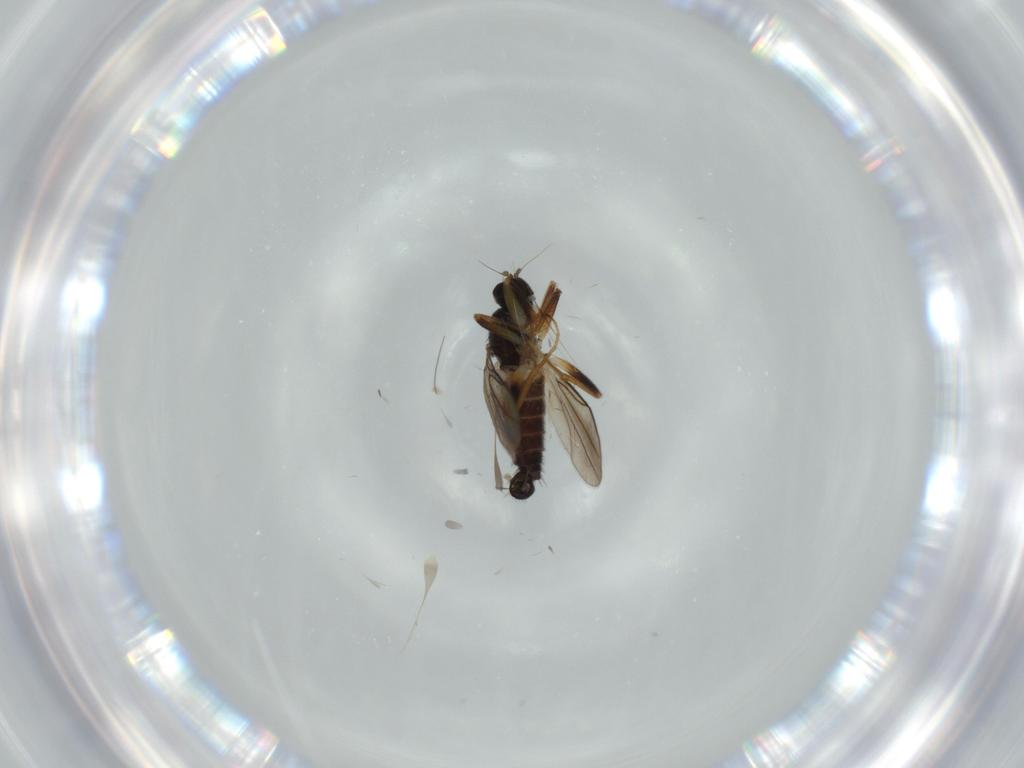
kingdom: Animalia
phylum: Arthropoda
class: Insecta
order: Diptera
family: Hybotidae
